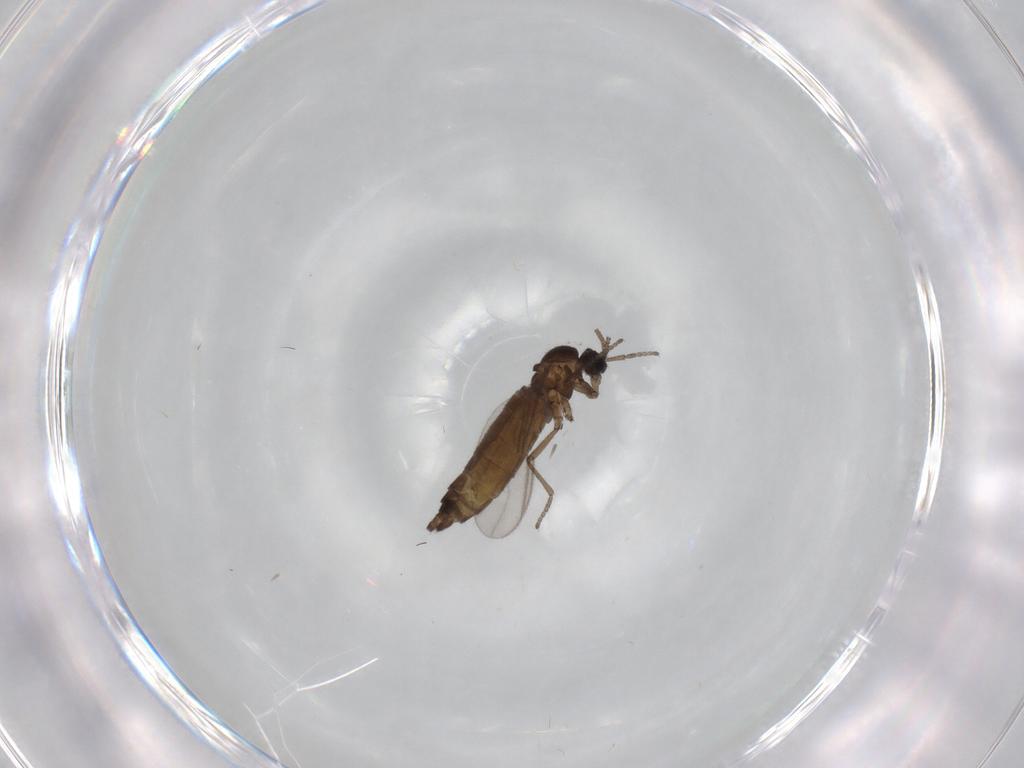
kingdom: Animalia
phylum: Arthropoda
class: Insecta
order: Diptera
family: Sciaridae
